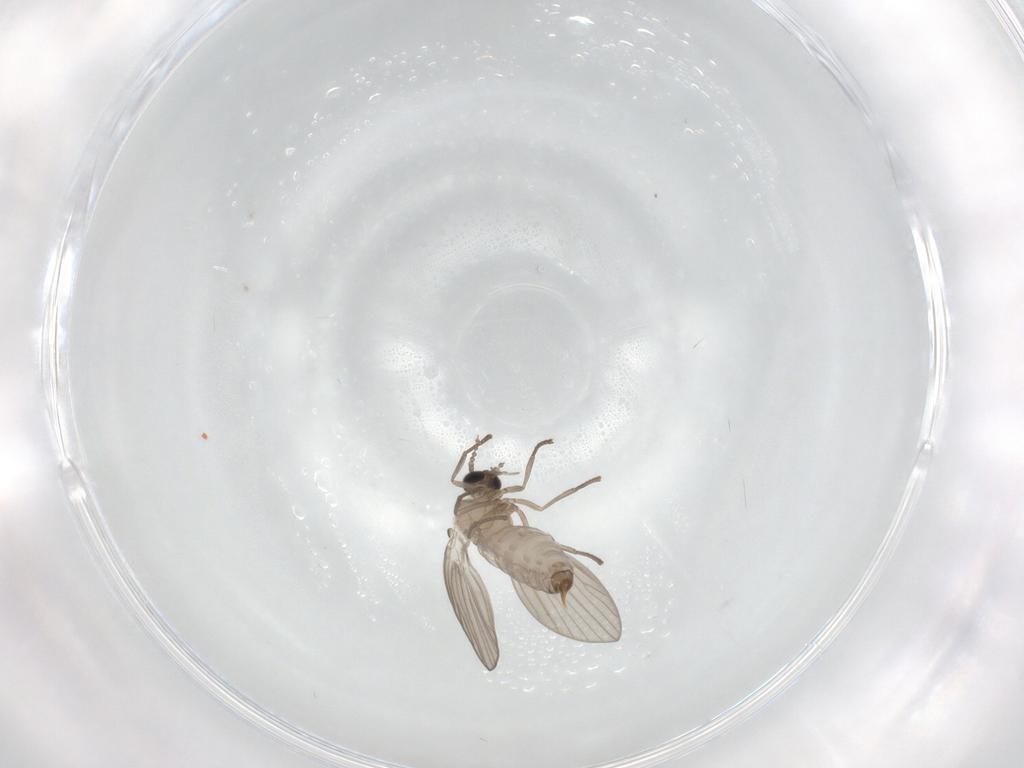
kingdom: Animalia
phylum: Arthropoda
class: Insecta
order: Diptera
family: Psychodidae
